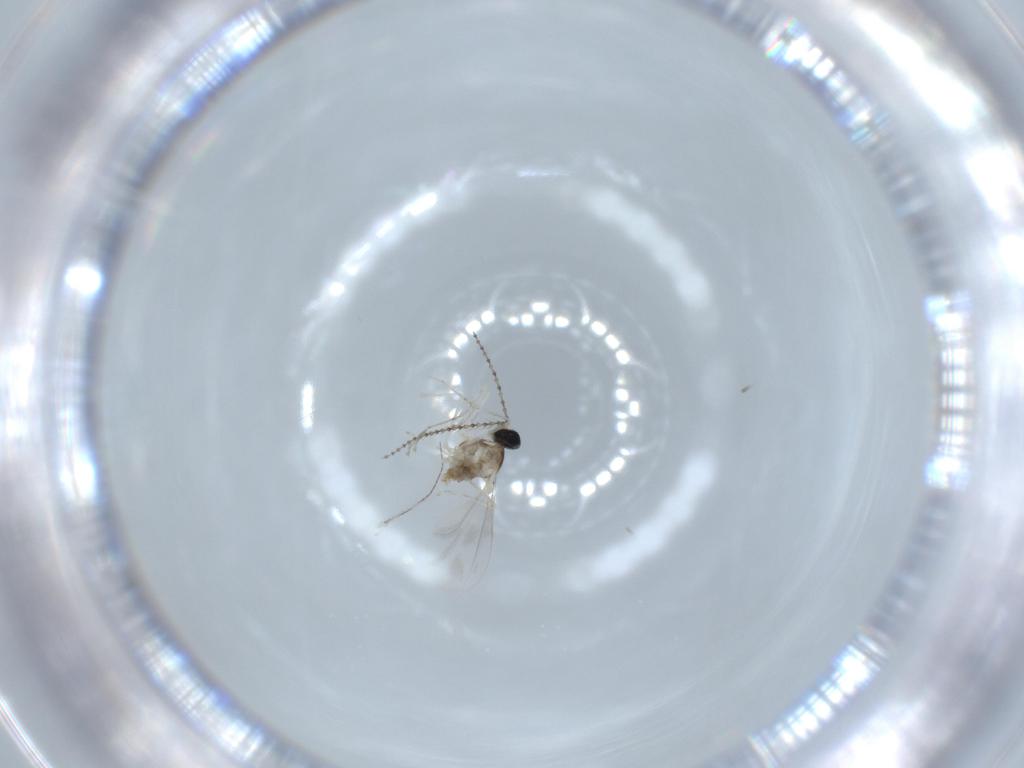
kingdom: Animalia
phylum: Arthropoda
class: Insecta
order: Diptera
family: Cecidomyiidae
